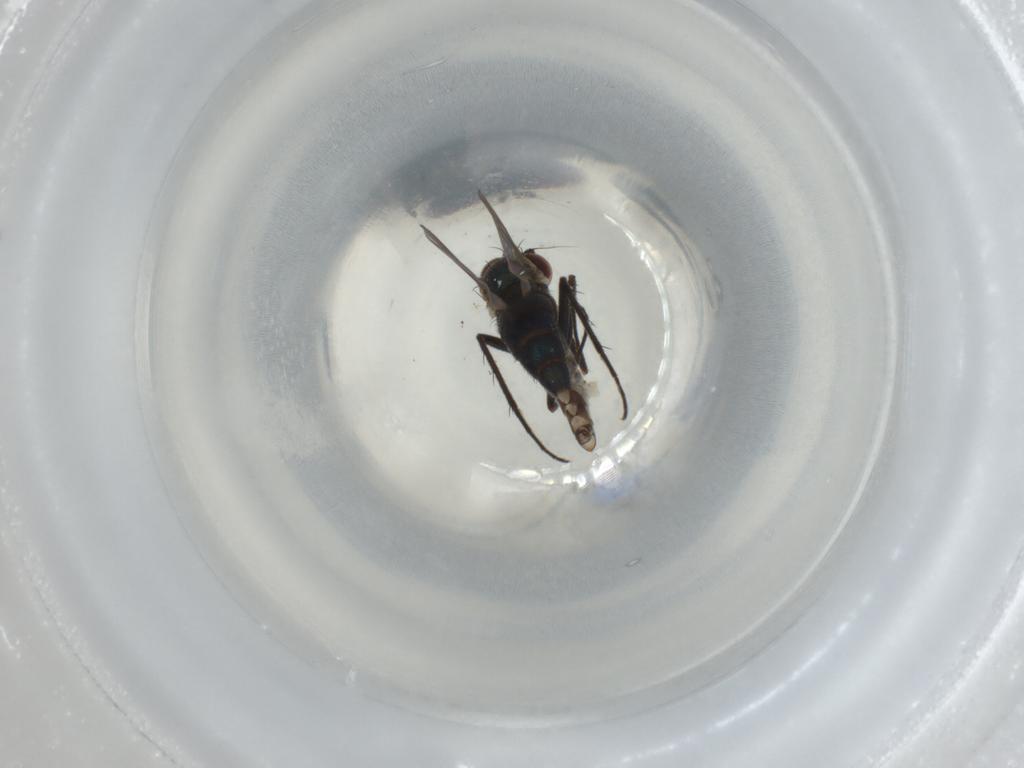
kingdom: Animalia
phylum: Arthropoda
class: Insecta
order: Diptera
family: Dolichopodidae
